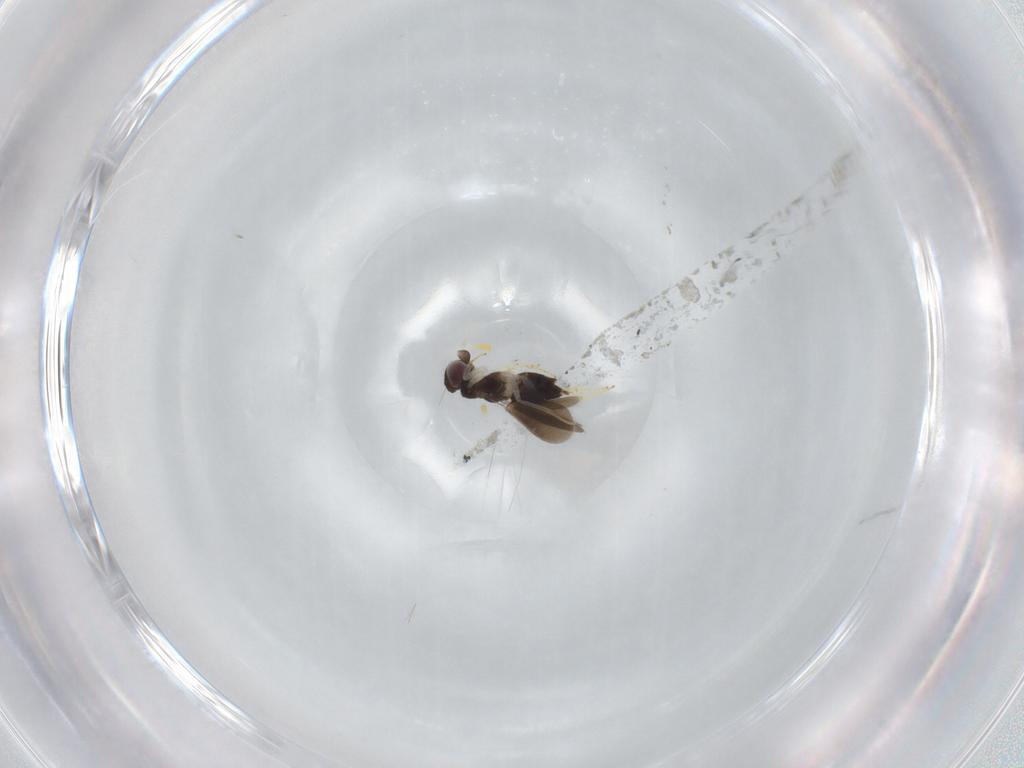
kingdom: Animalia
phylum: Arthropoda
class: Insecta
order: Hymenoptera
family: Aphelinidae
